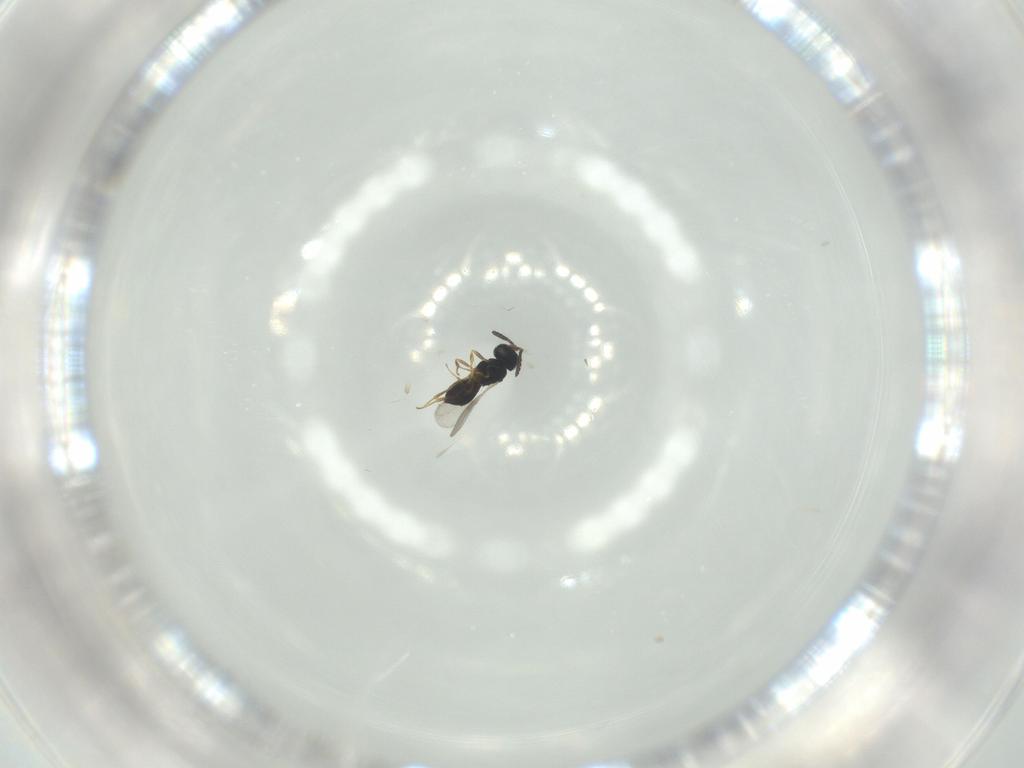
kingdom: Animalia
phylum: Arthropoda
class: Insecta
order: Hymenoptera
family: Scelionidae
